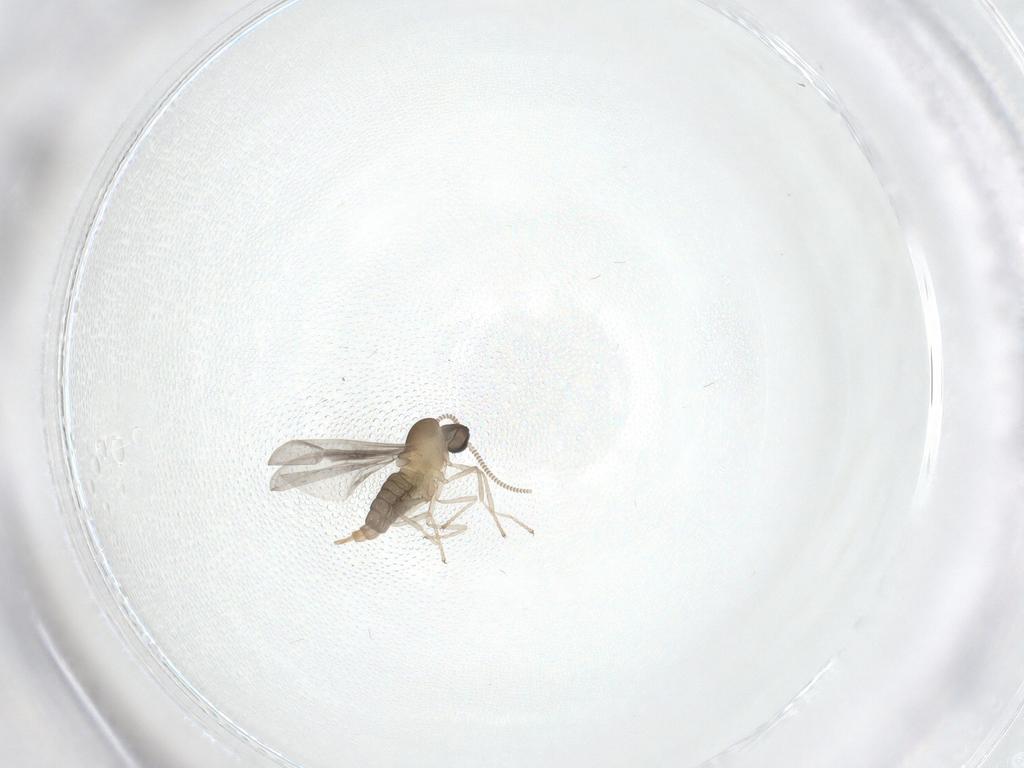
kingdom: Animalia
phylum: Arthropoda
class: Insecta
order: Diptera
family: Cecidomyiidae
